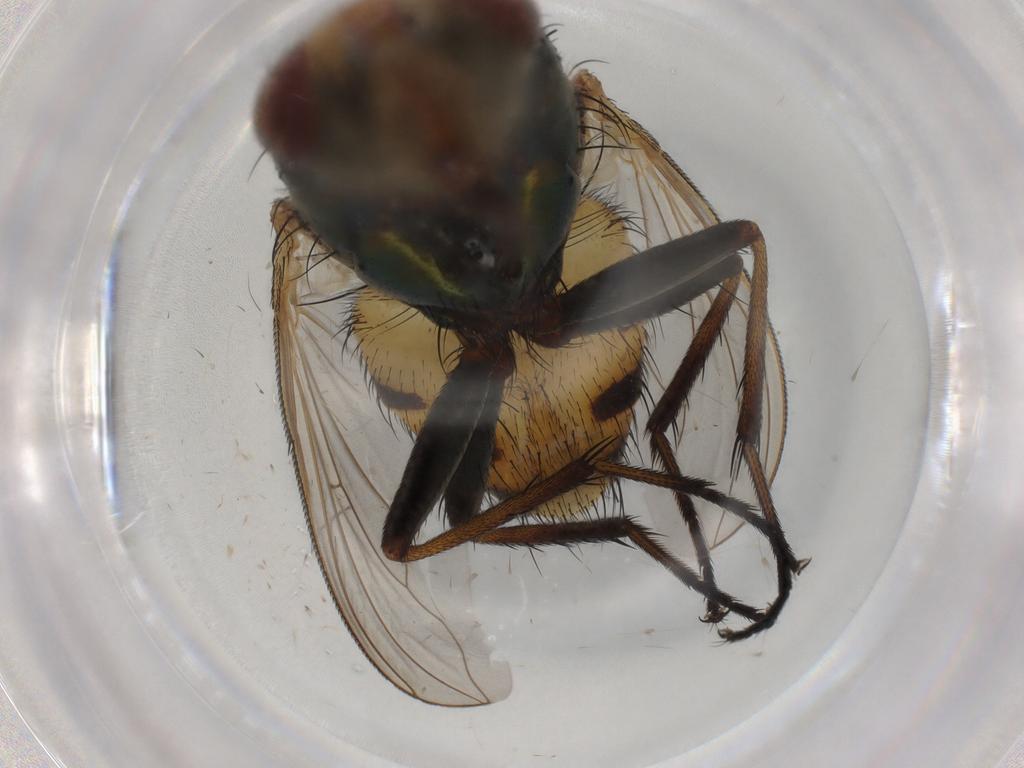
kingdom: Animalia
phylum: Arthropoda
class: Insecta
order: Diptera
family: Calliphoridae
